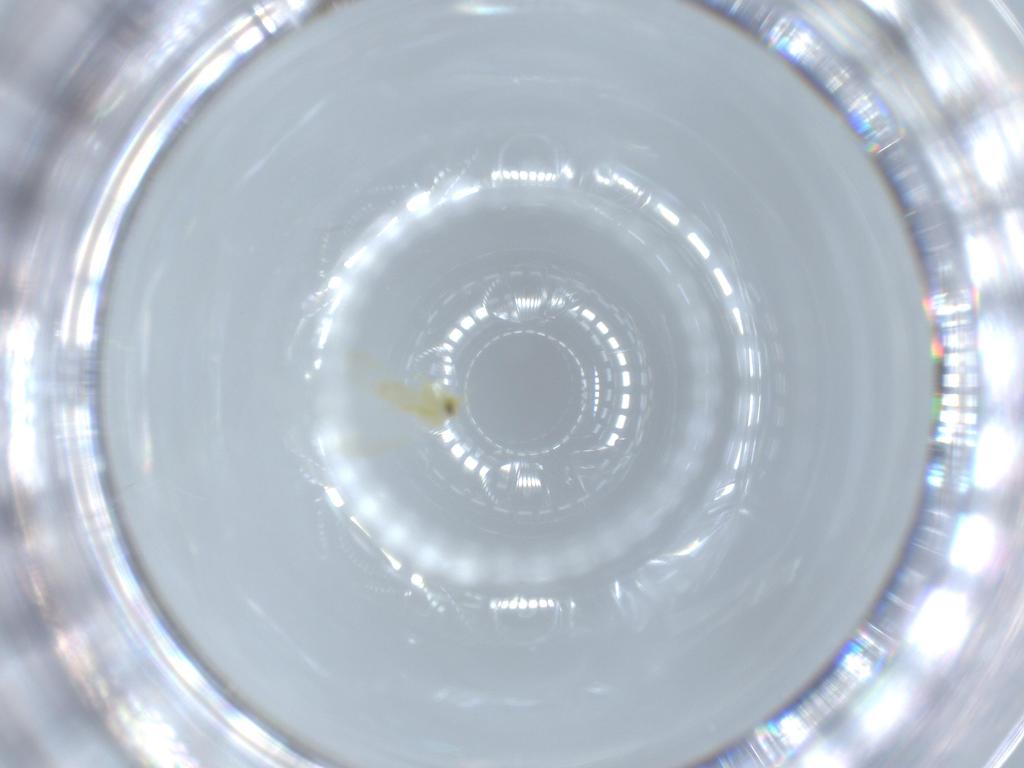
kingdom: Animalia
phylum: Arthropoda
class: Insecta
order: Hemiptera
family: Aleyrodidae
